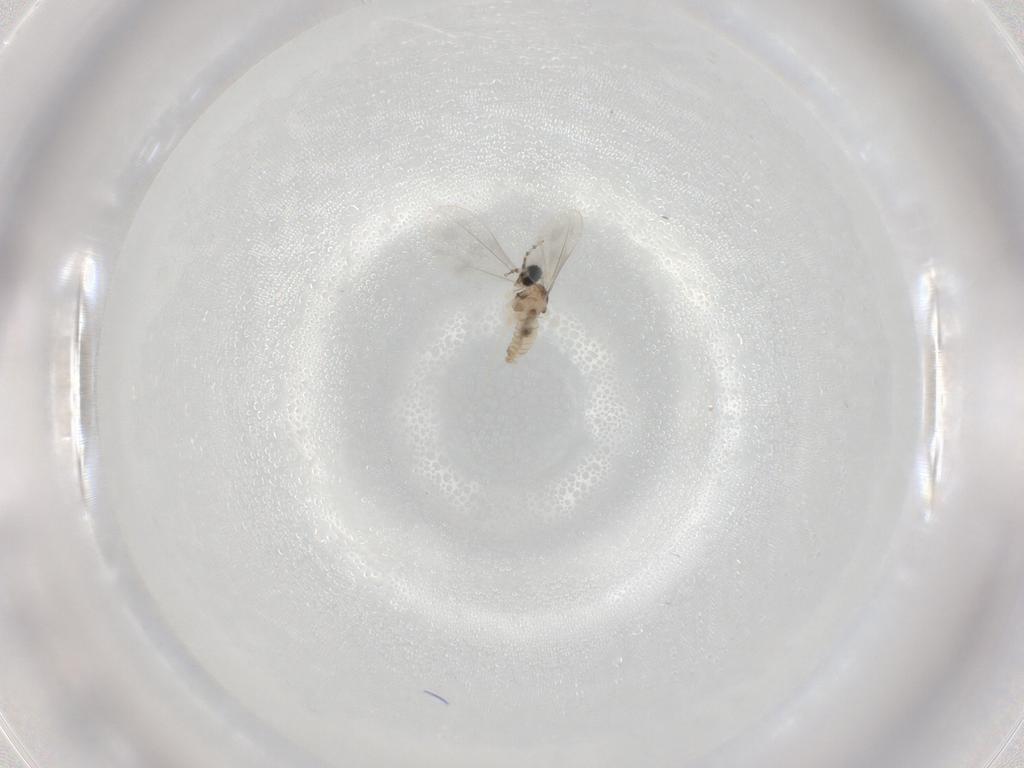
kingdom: Animalia
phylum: Arthropoda
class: Insecta
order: Diptera
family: Cecidomyiidae
